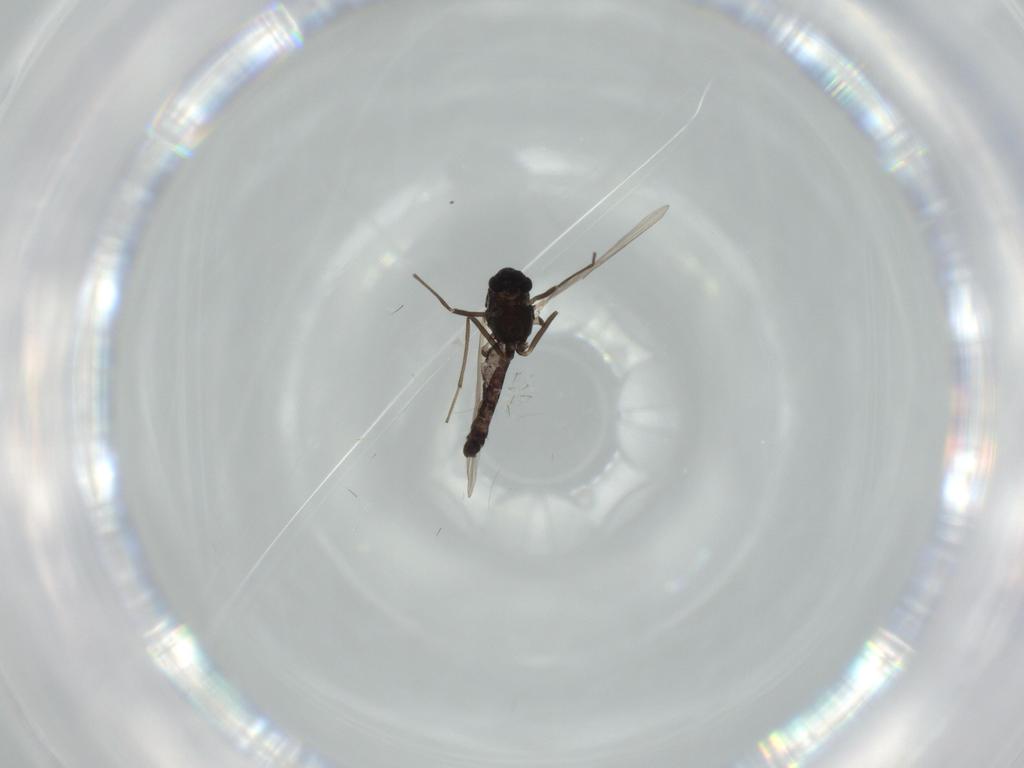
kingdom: Animalia
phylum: Arthropoda
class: Insecta
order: Diptera
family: Chironomidae
